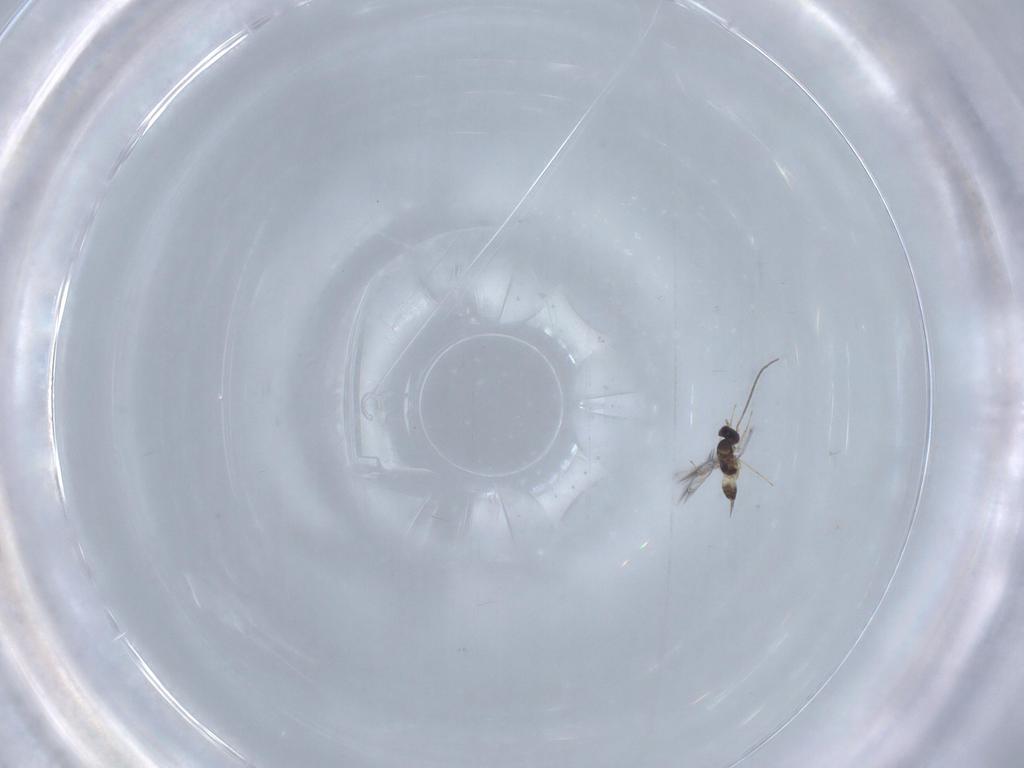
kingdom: Animalia
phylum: Arthropoda
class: Insecta
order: Hymenoptera
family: Mymaridae
